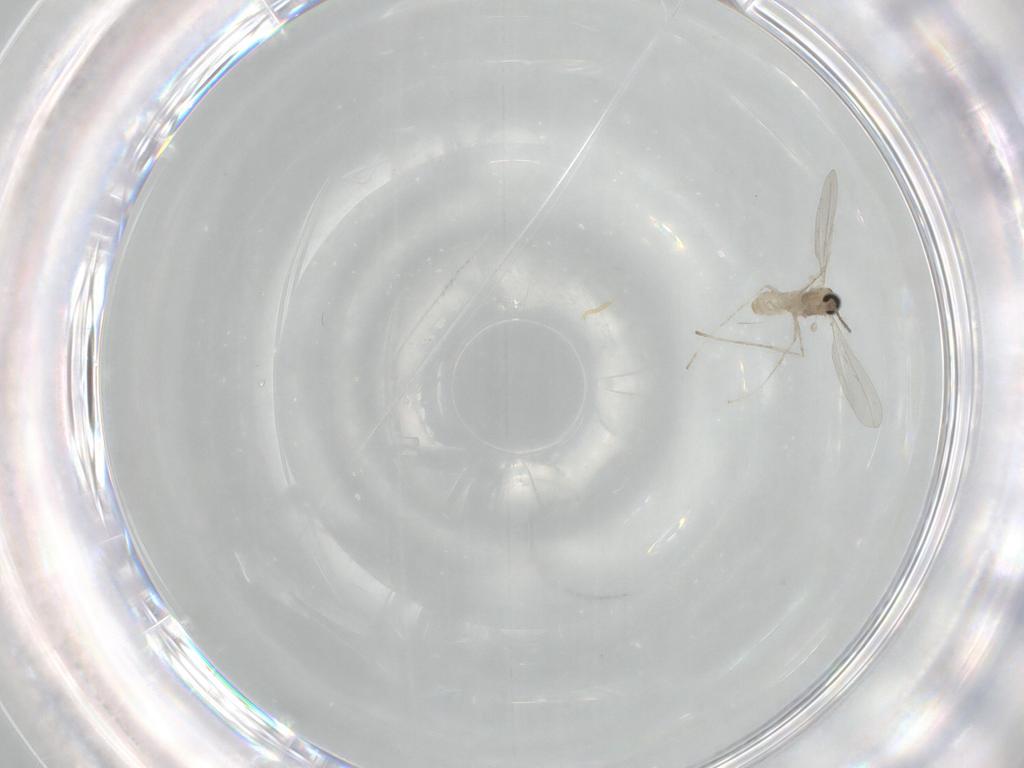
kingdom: Animalia
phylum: Arthropoda
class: Insecta
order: Diptera
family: Cecidomyiidae
